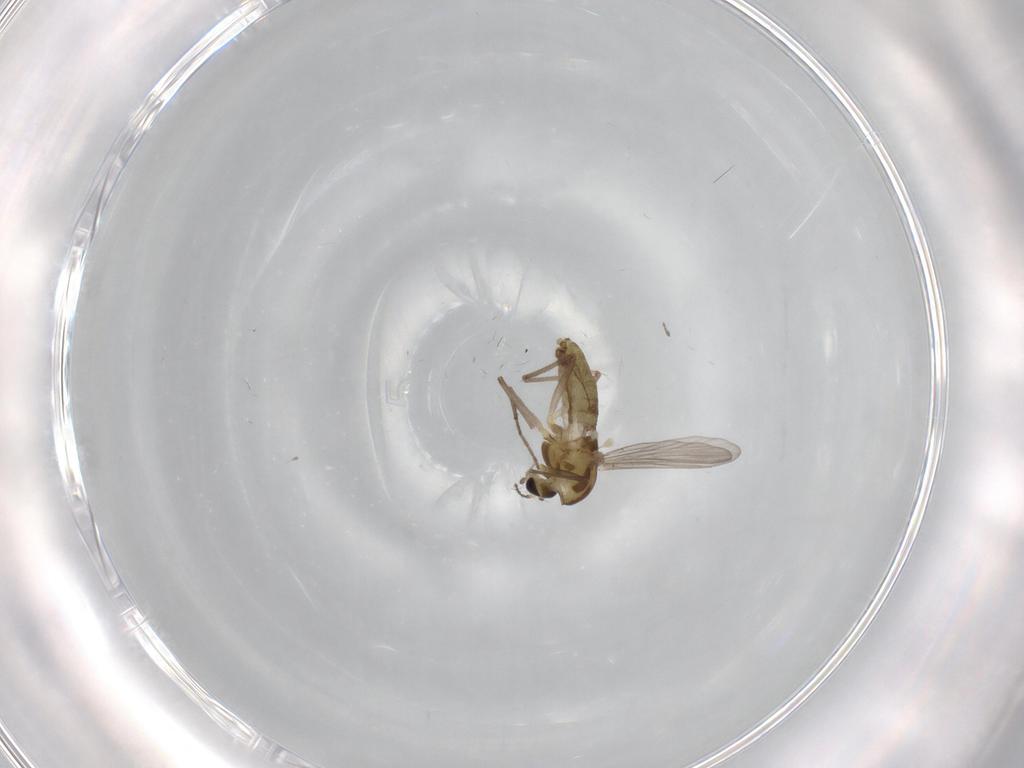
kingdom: Animalia
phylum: Arthropoda
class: Insecta
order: Diptera
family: Chironomidae
